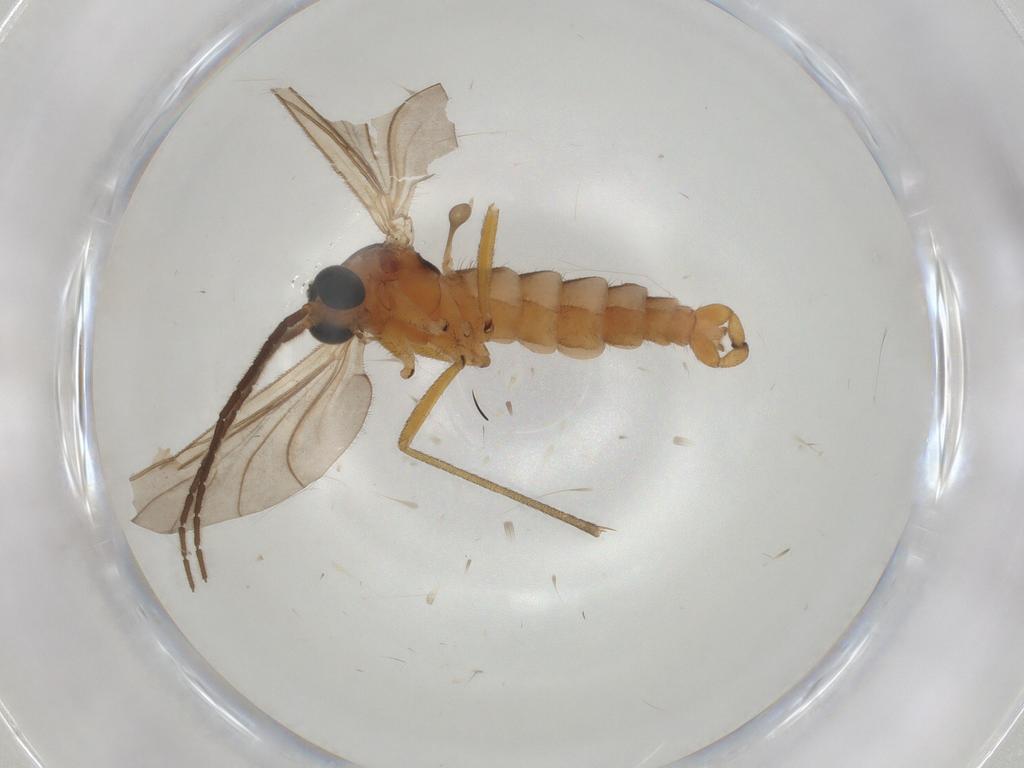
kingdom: Animalia
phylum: Arthropoda
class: Insecta
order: Diptera
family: Sciaridae
